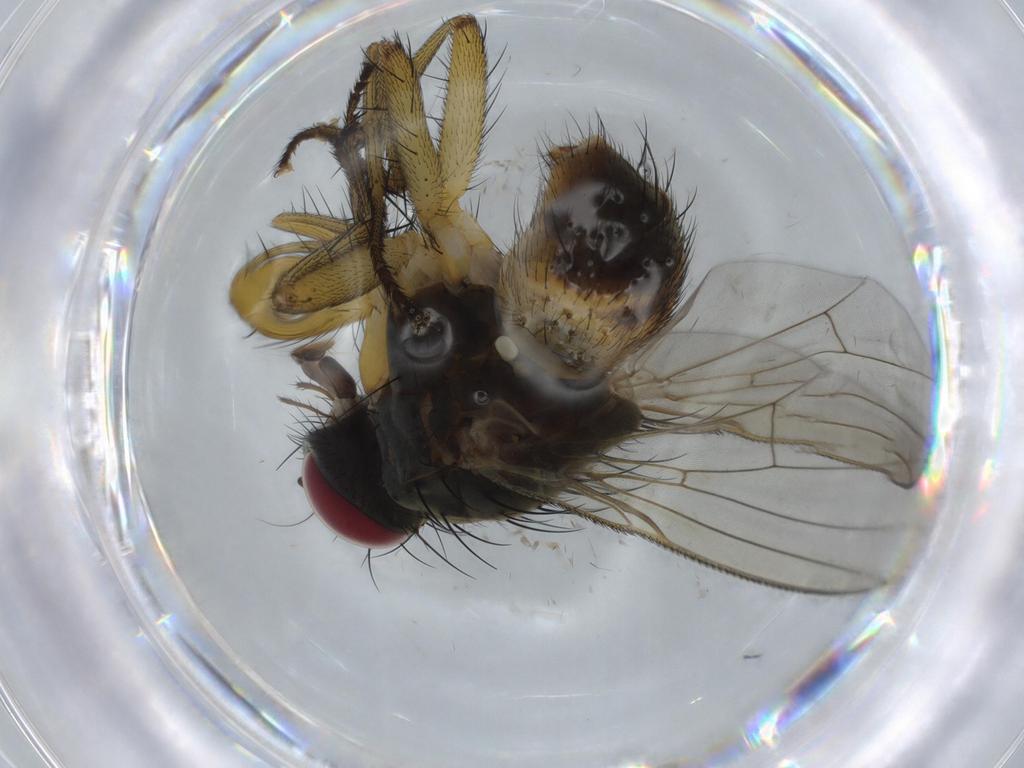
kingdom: Animalia
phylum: Arthropoda
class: Insecta
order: Diptera
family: Muscidae
